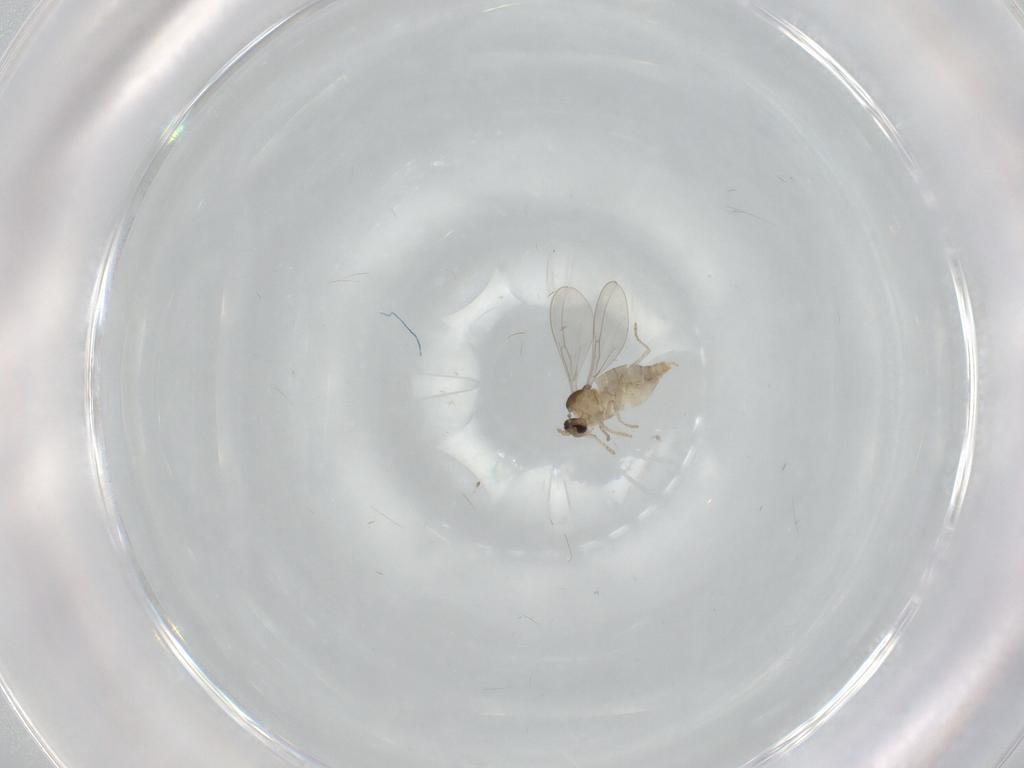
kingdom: Animalia
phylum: Arthropoda
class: Insecta
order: Diptera
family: Cecidomyiidae
